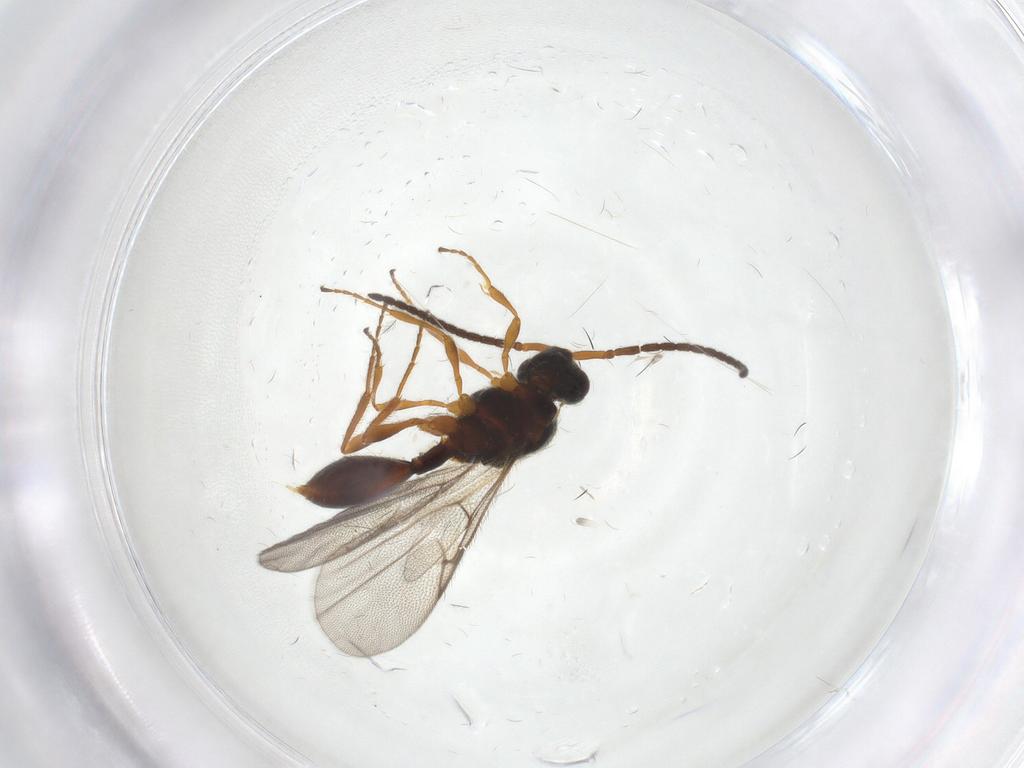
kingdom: Animalia
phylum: Arthropoda
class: Insecta
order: Hymenoptera
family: Diapriidae
